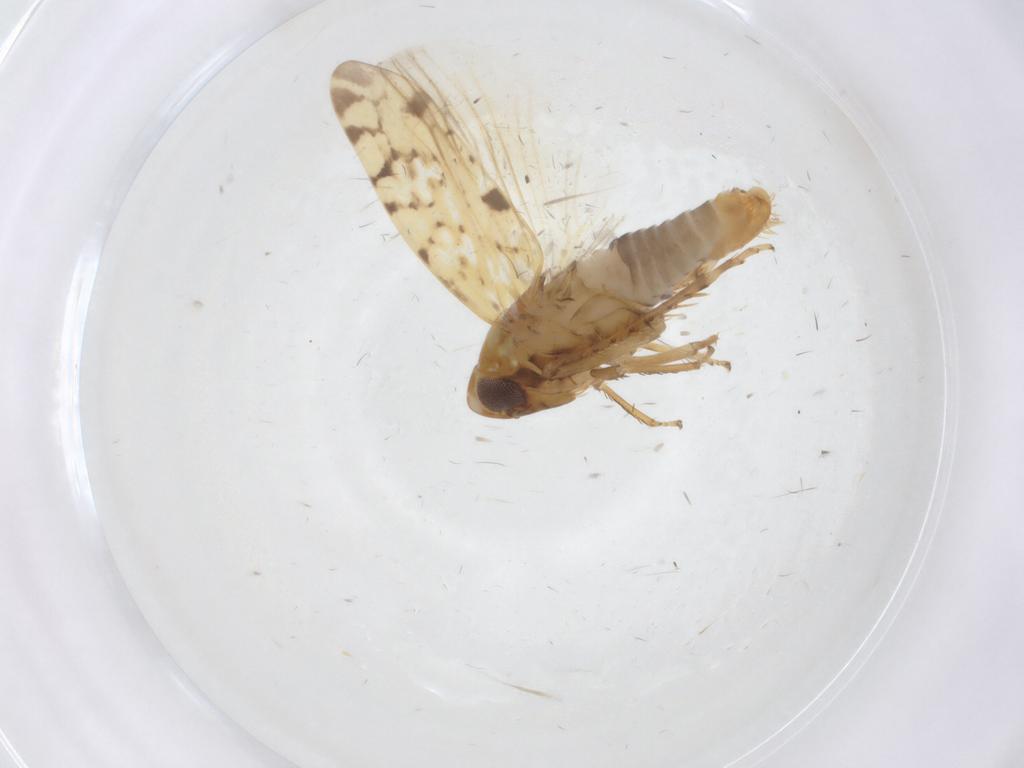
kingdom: Animalia
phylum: Arthropoda
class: Insecta
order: Hemiptera
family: Cicadellidae
